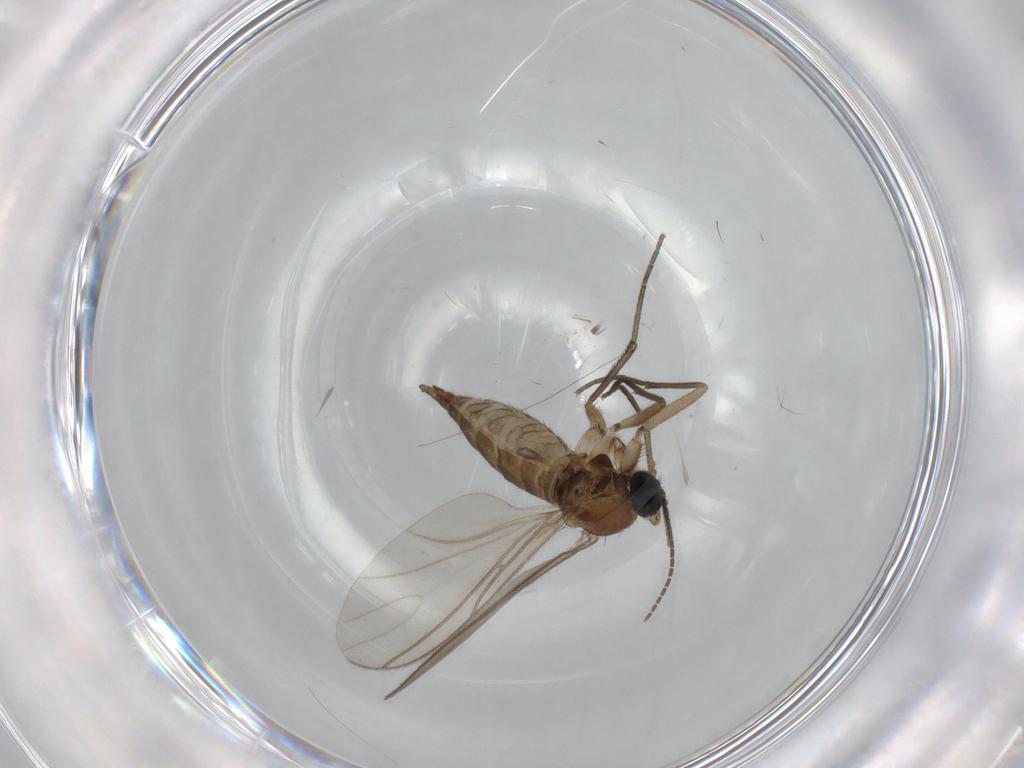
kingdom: Animalia
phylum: Arthropoda
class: Insecta
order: Diptera
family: Sciaridae
